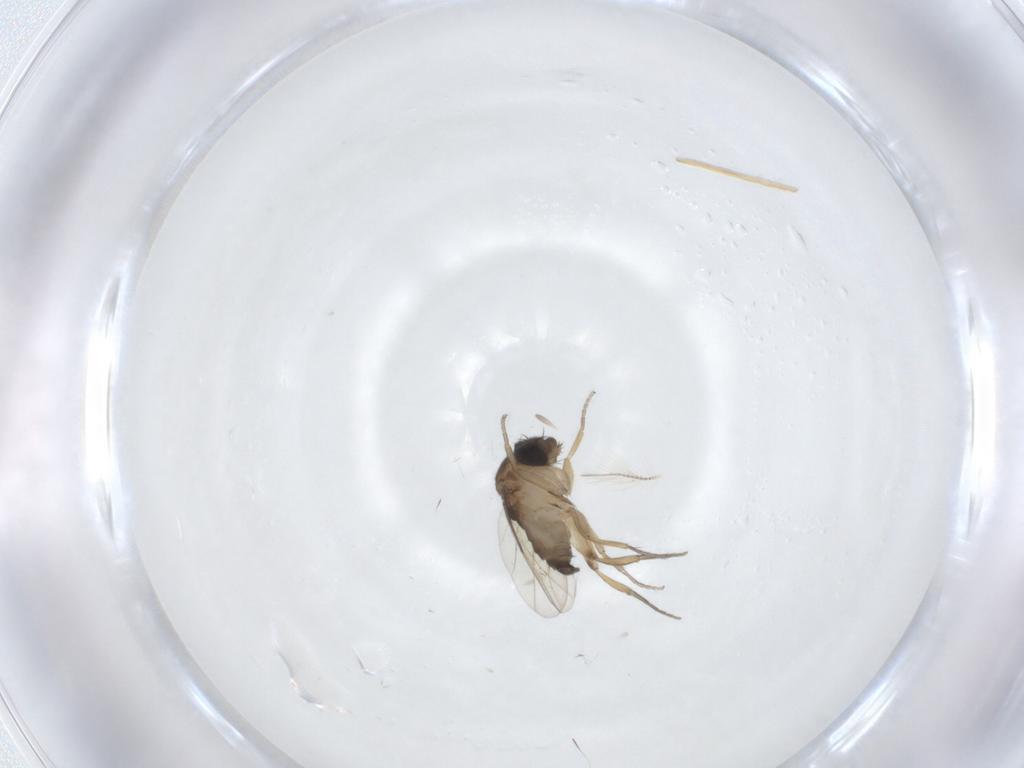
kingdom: Animalia
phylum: Arthropoda
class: Insecta
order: Diptera
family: Phoridae
